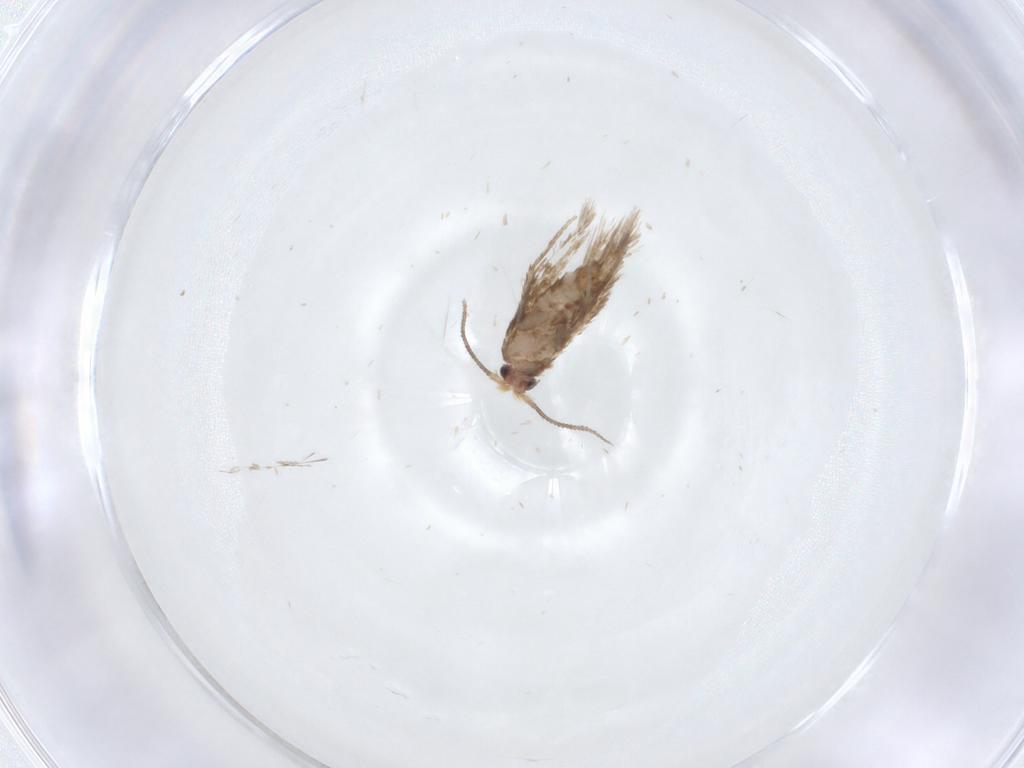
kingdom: Animalia
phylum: Arthropoda
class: Insecta
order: Lepidoptera
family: Nepticulidae
